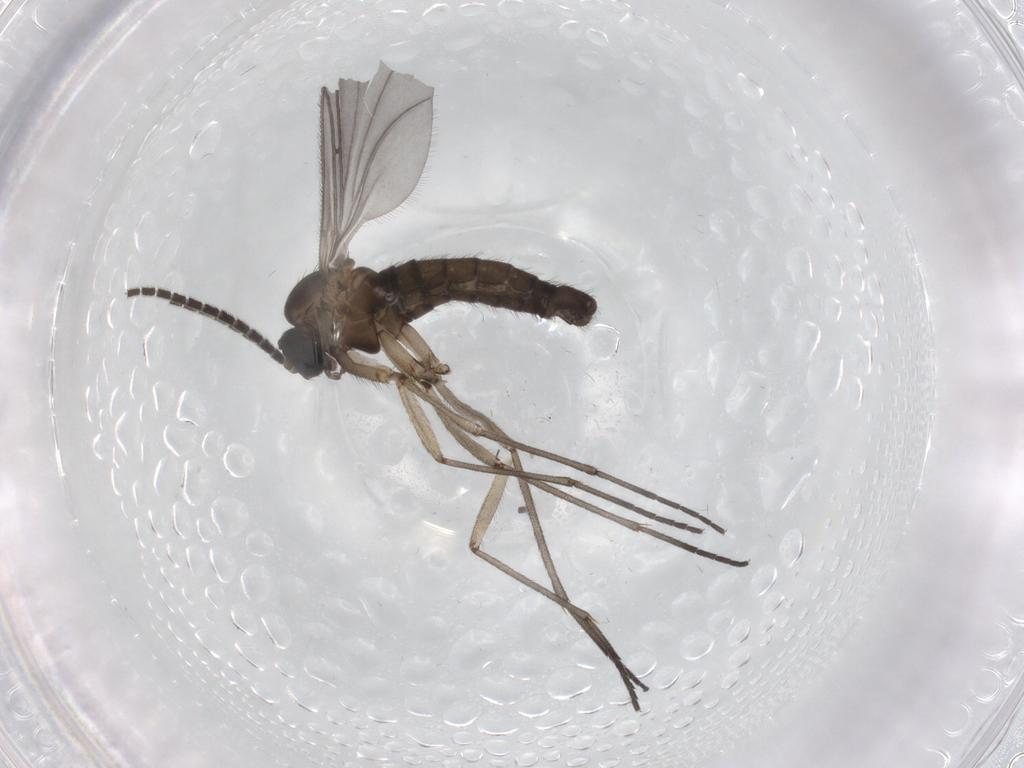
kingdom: Animalia
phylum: Arthropoda
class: Insecta
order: Diptera
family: Sciaridae
